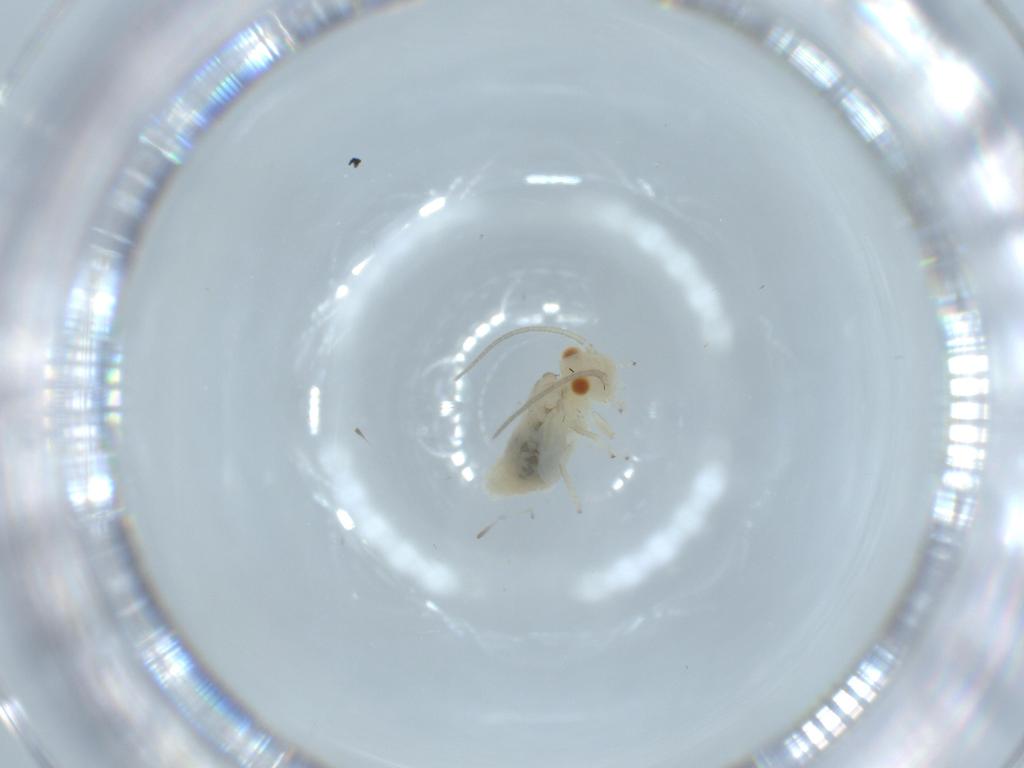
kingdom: Animalia
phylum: Arthropoda
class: Insecta
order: Psocodea
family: Caeciliusidae
